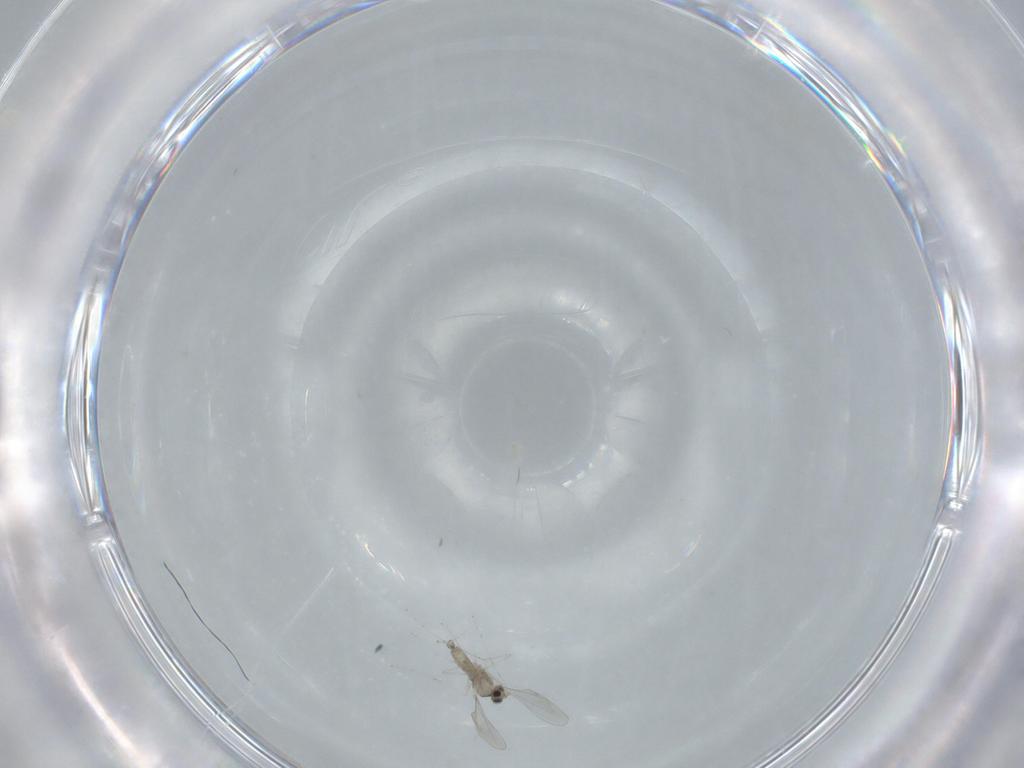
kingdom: Animalia
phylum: Arthropoda
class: Insecta
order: Diptera
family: Cecidomyiidae
